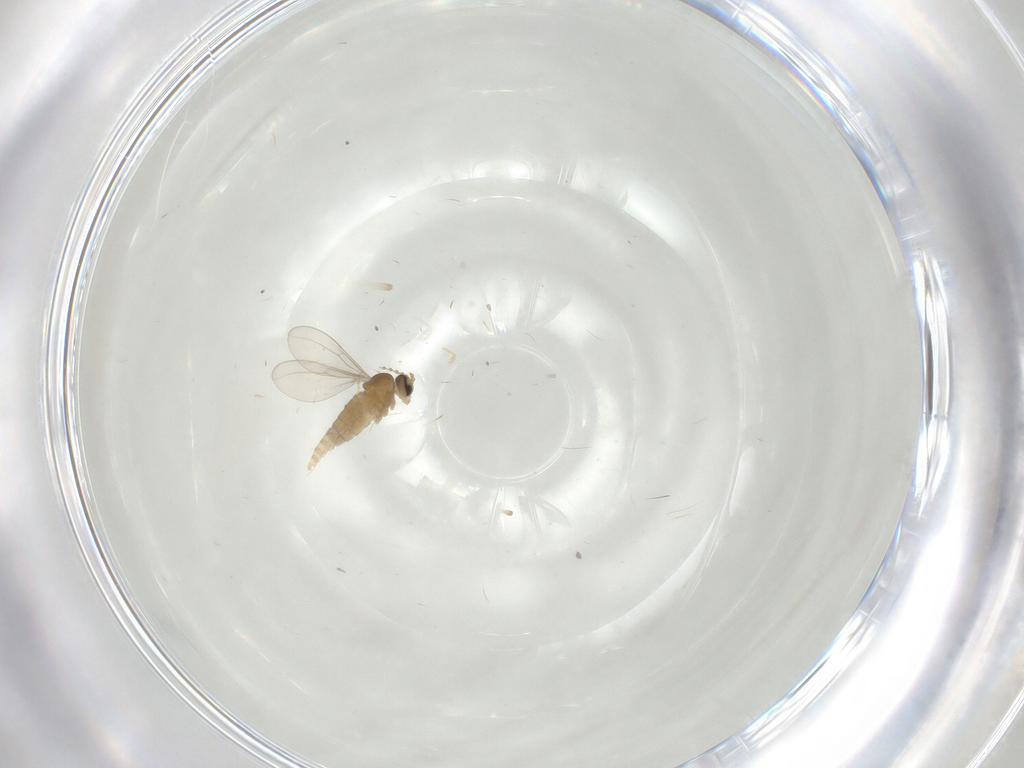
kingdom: Animalia
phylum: Arthropoda
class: Insecta
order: Diptera
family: Cecidomyiidae
